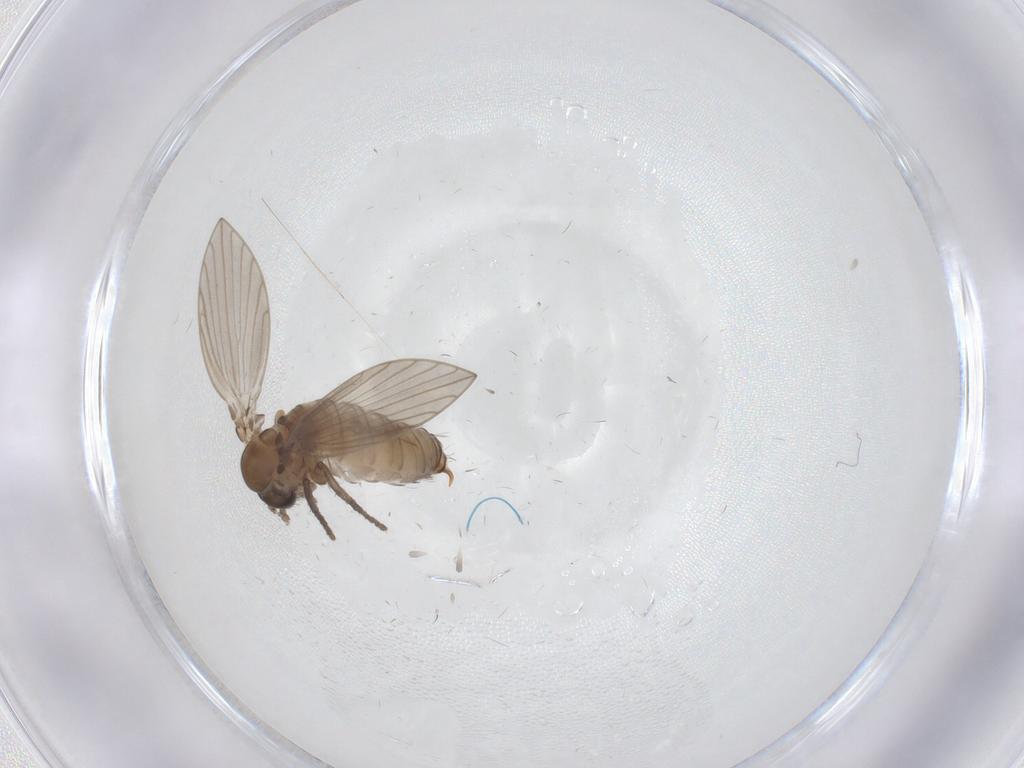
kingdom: Animalia
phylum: Arthropoda
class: Insecta
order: Diptera
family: Psychodidae
